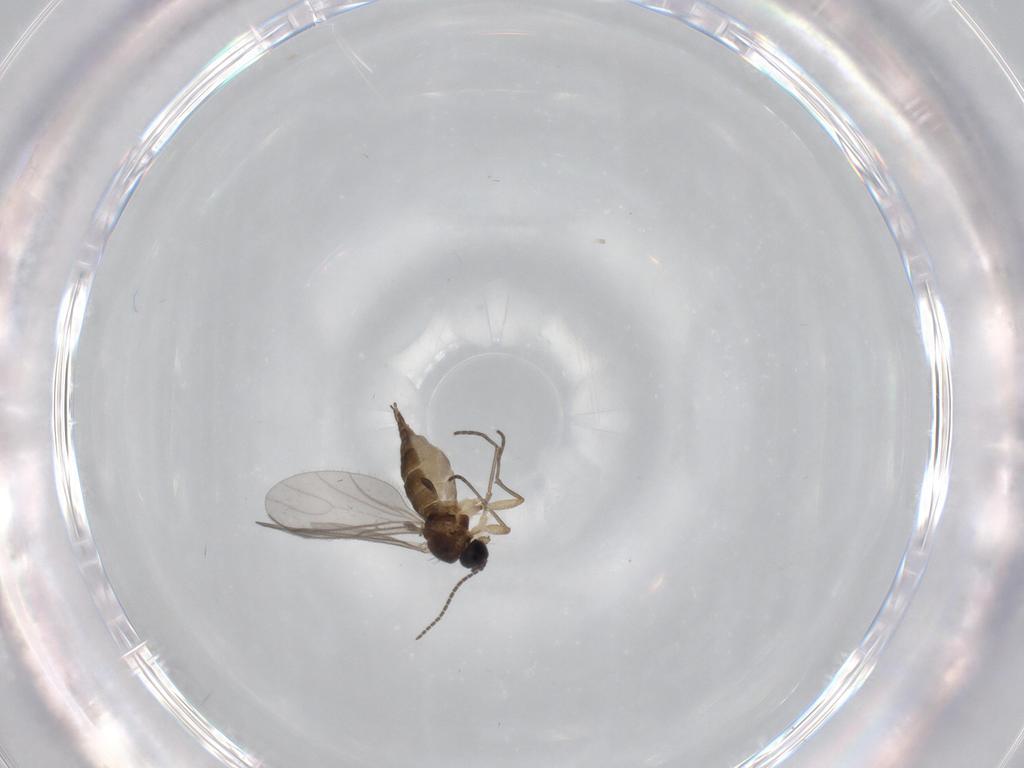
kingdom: Animalia
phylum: Arthropoda
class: Insecta
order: Diptera
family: Sciaridae
